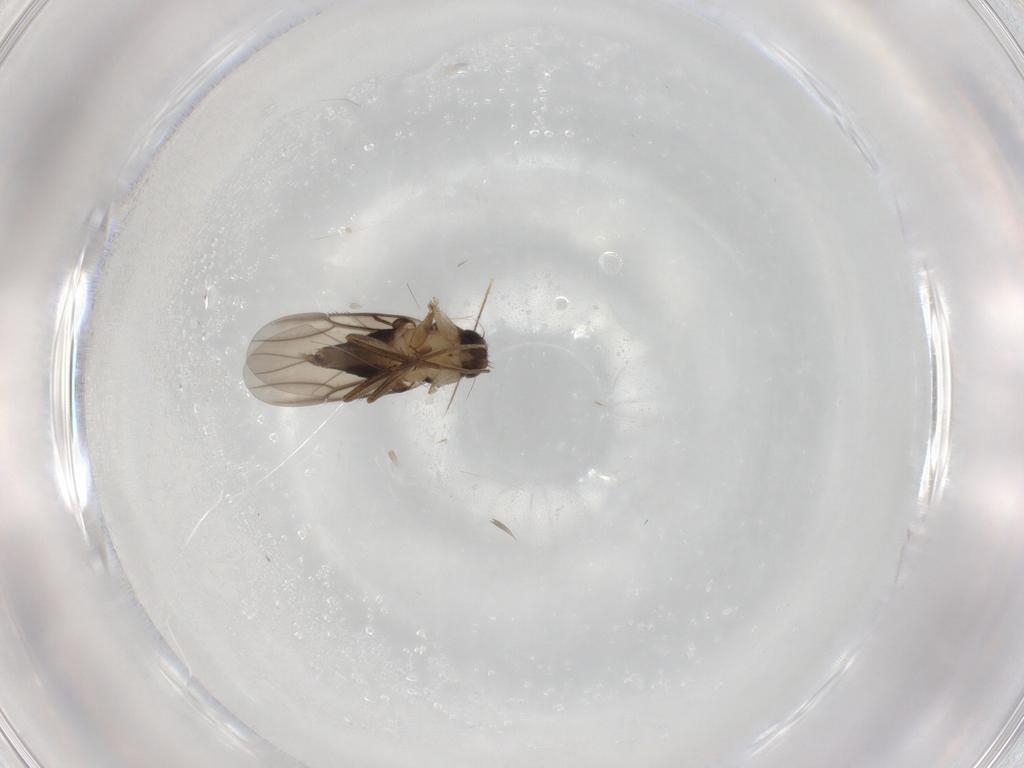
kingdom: Animalia
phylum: Arthropoda
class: Insecta
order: Diptera
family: Phoridae
